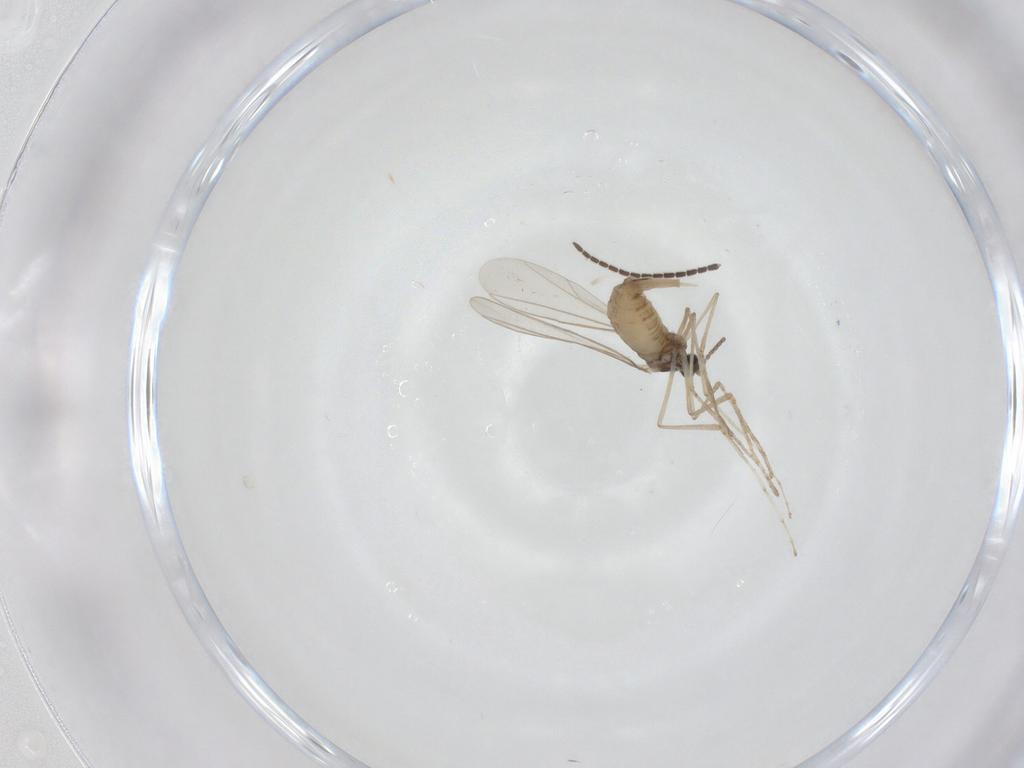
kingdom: Animalia
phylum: Arthropoda
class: Insecta
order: Diptera
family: Cecidomyiidae
